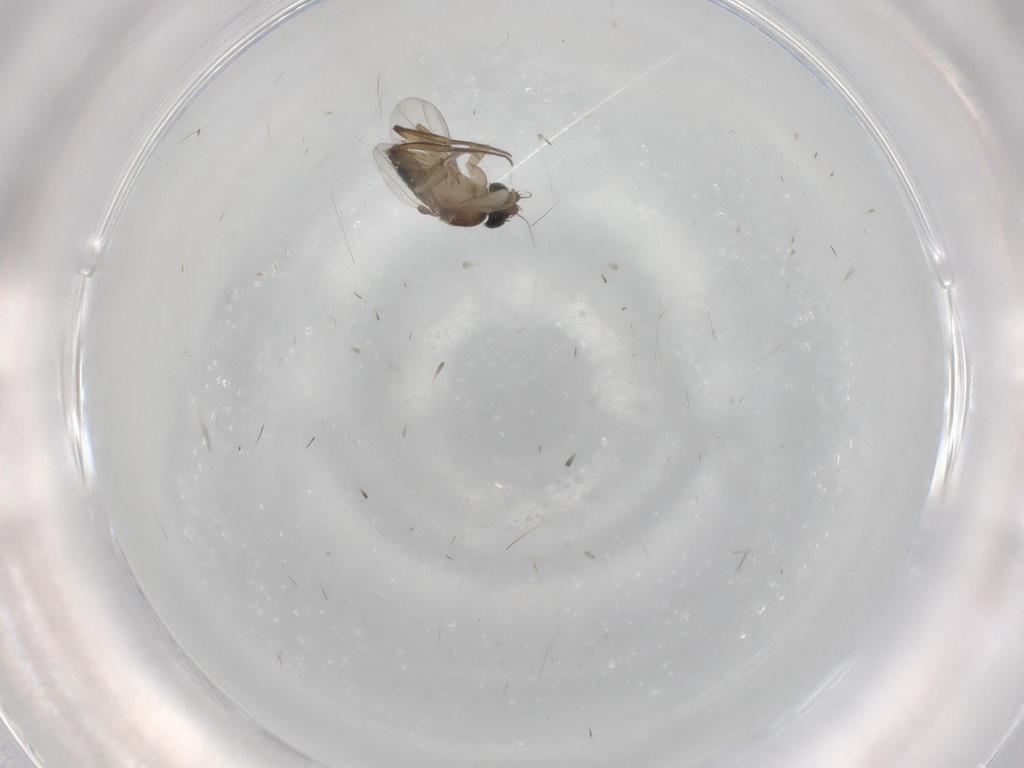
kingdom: Animalia
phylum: Arthropoda
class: Insecta
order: Diptera
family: Phoridae
